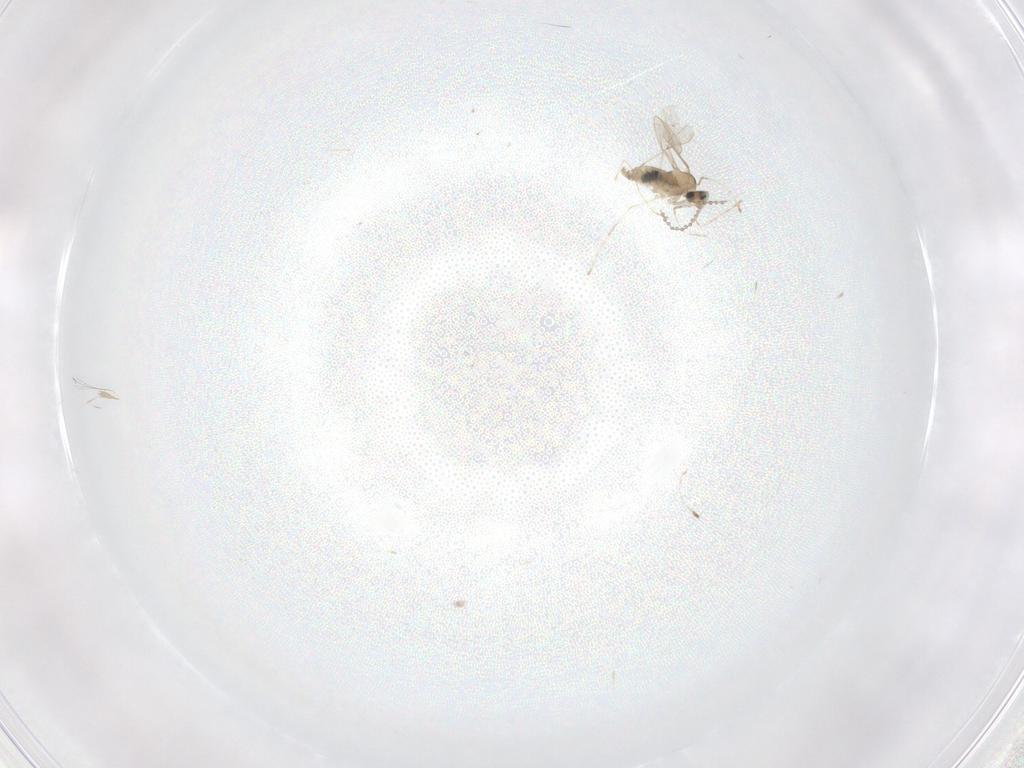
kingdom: Animalia
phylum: Arthropoda
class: Insecta
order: Diptera
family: Cecidomyiidae
